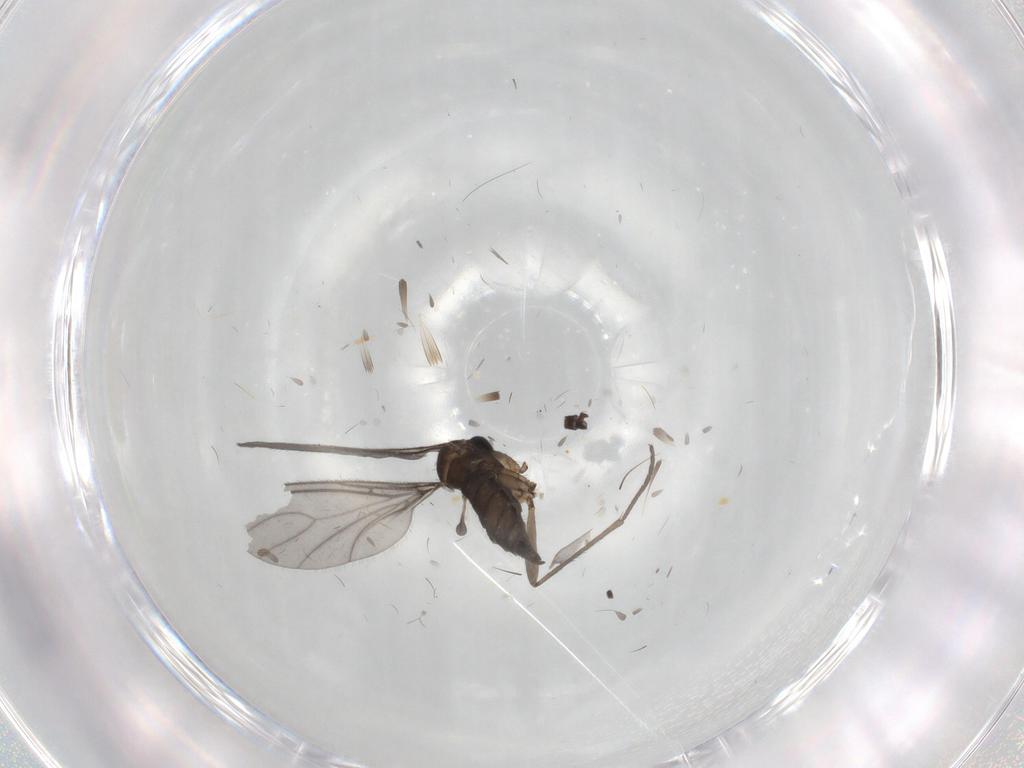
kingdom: Animalia
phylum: Arthropoda
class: Insecta
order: Diptera
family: Sciaridae
